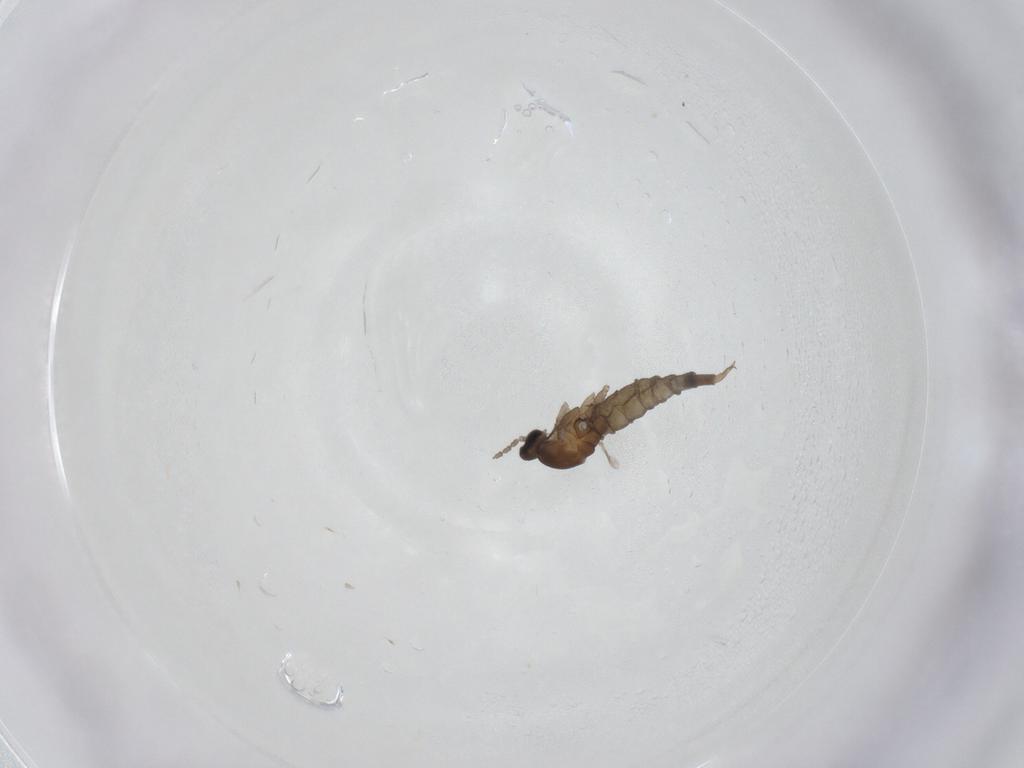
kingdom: Animalia
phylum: Arthropoda
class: Insecta
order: Diptera
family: Cecidomyiidae
